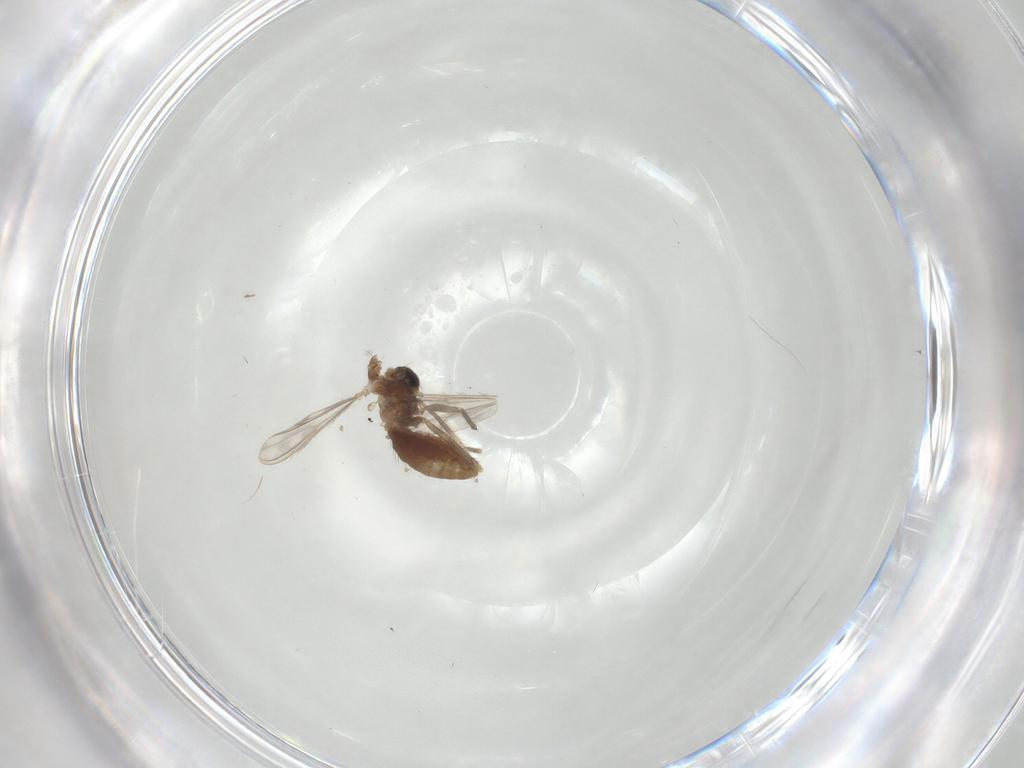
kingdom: Animalia
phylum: Arthropoda
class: Insecta
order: Diptera
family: Chironomidae
